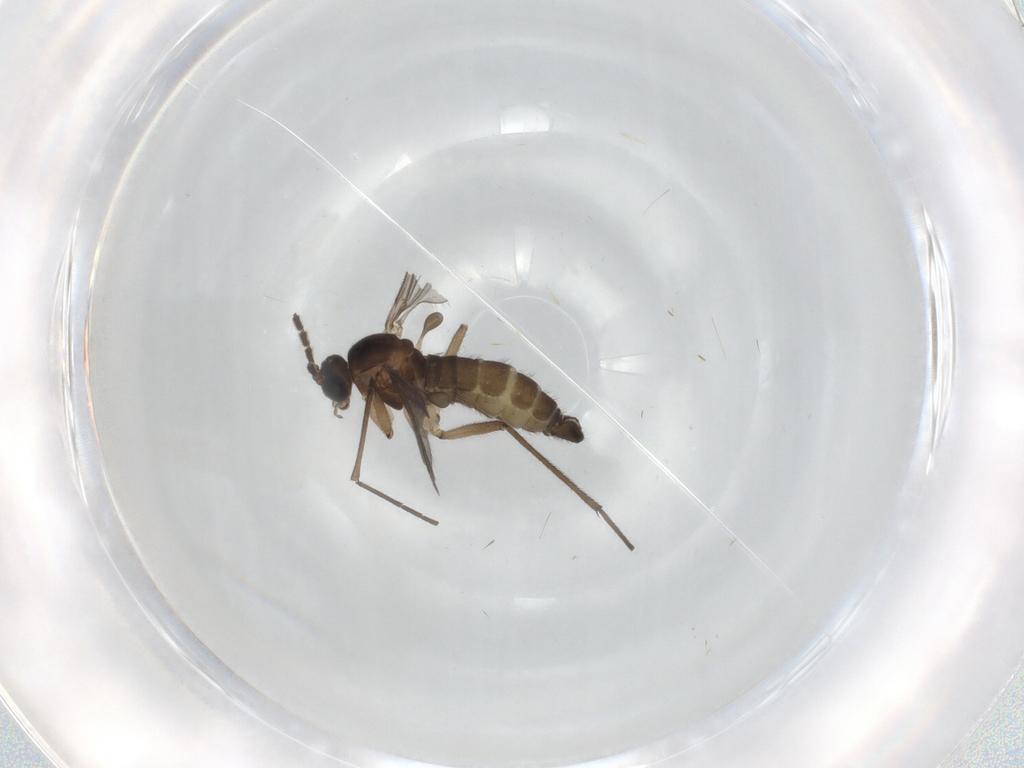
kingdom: Animalia
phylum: Arthropoda
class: Insecta
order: Diptera
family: Sciaridae
